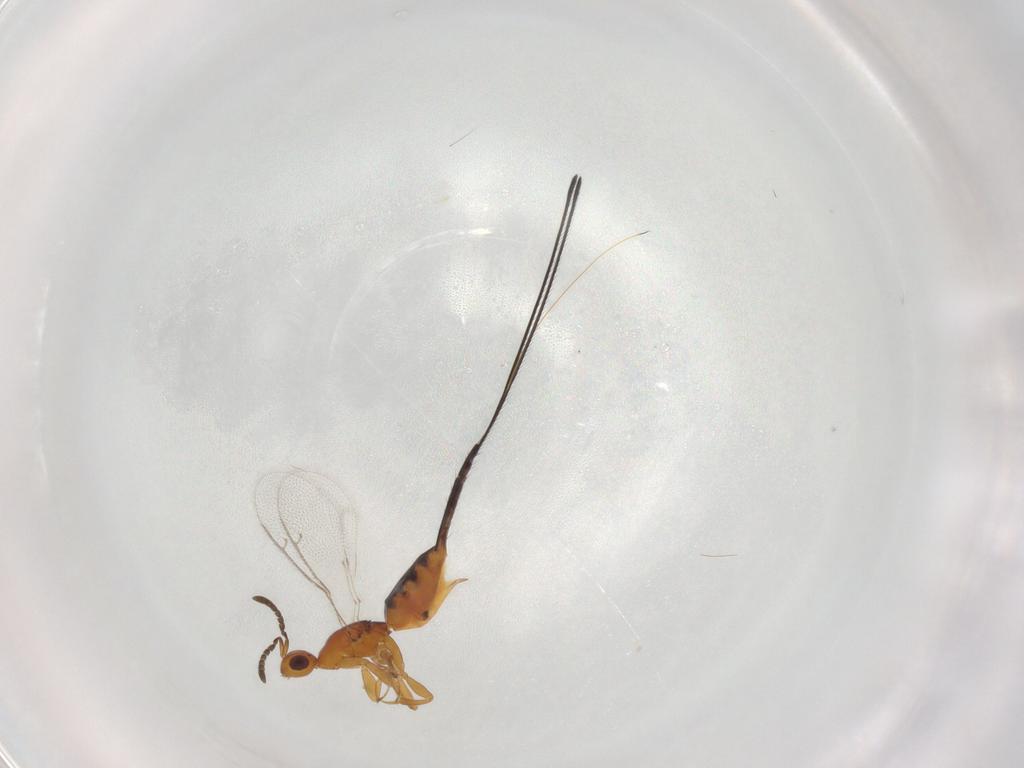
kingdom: Animalia
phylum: Arthropoda
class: Insecta
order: Hymenoptera
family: Pteromalidae
